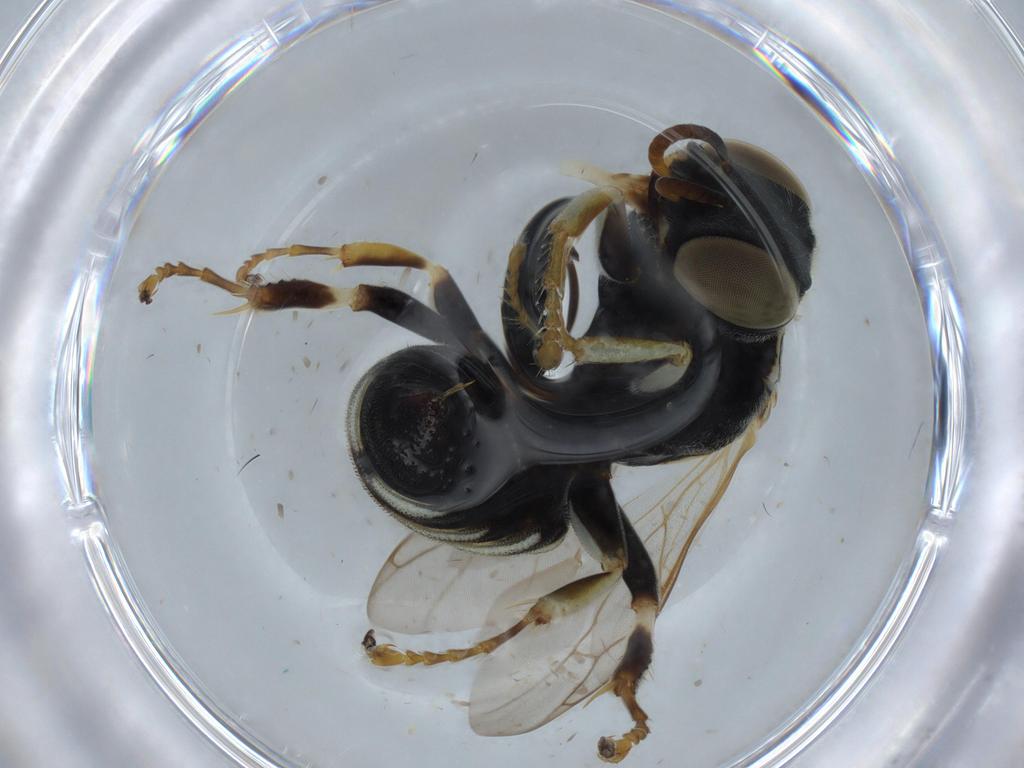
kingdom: Animalia
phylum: Arthropoda
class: Insecta
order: Hymenoptera
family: Crabronidae
